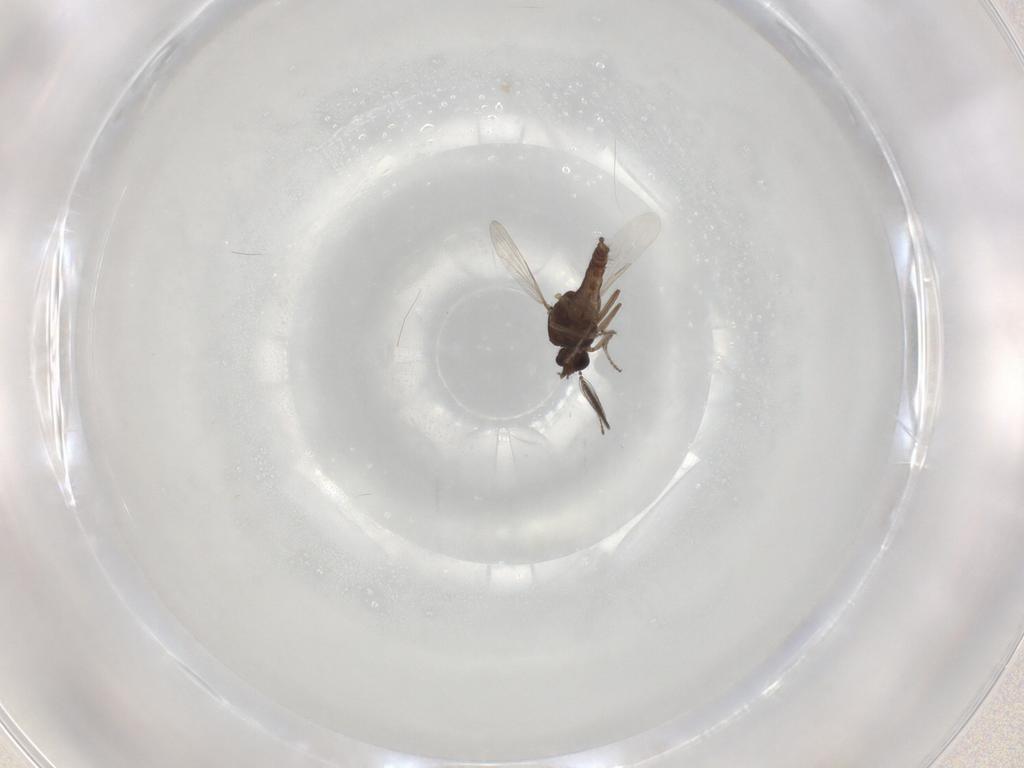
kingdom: Animalia
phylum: Arthropoda
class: Insecta
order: Diptera
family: Ceratopogonidae
